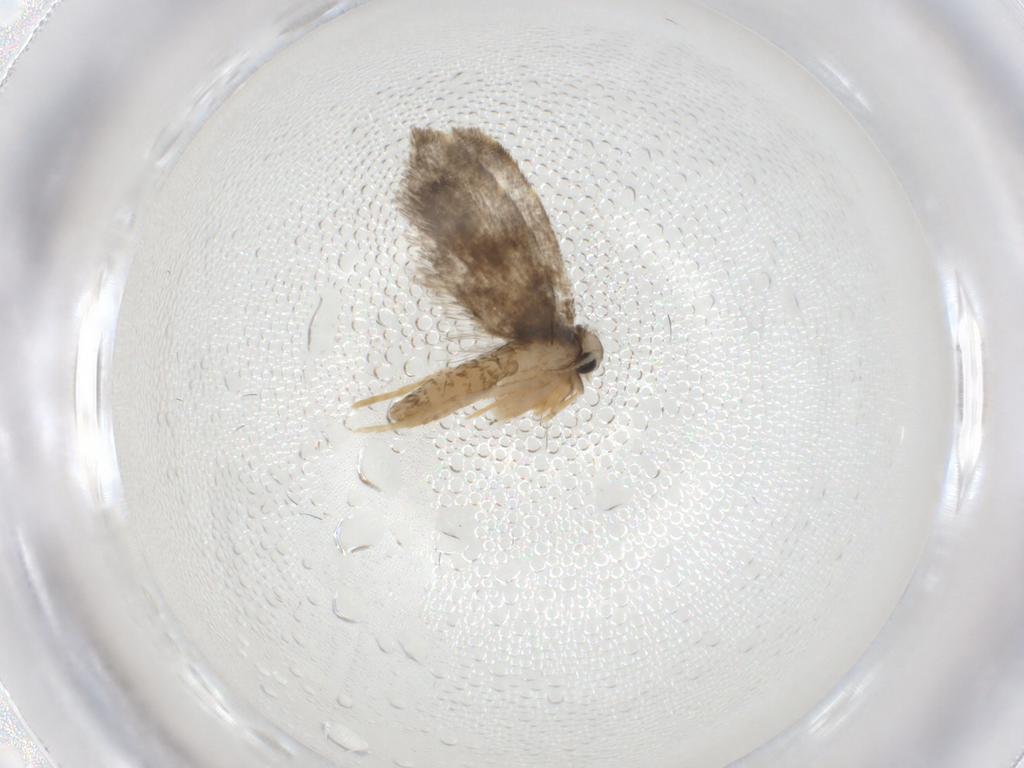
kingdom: Animalia
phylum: Arthropoda
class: Insecta
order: Lepidoptera
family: Psychidae
